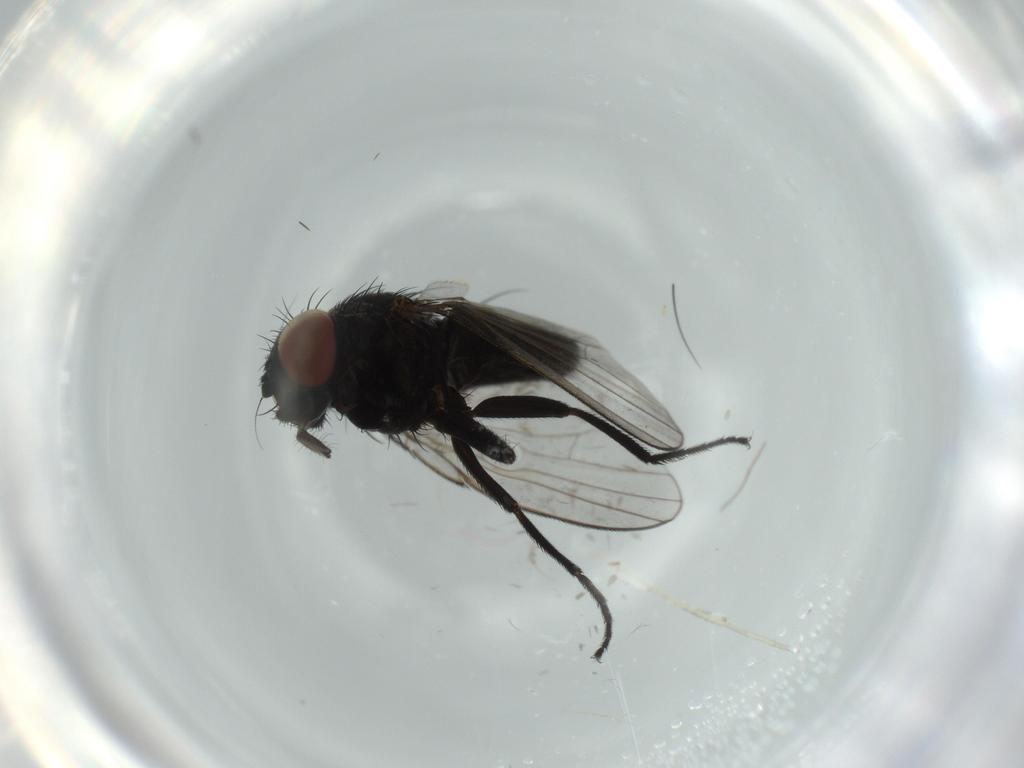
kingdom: Animalia
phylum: Arthropoda
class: Insecta
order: Diptera
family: Milichiidae
